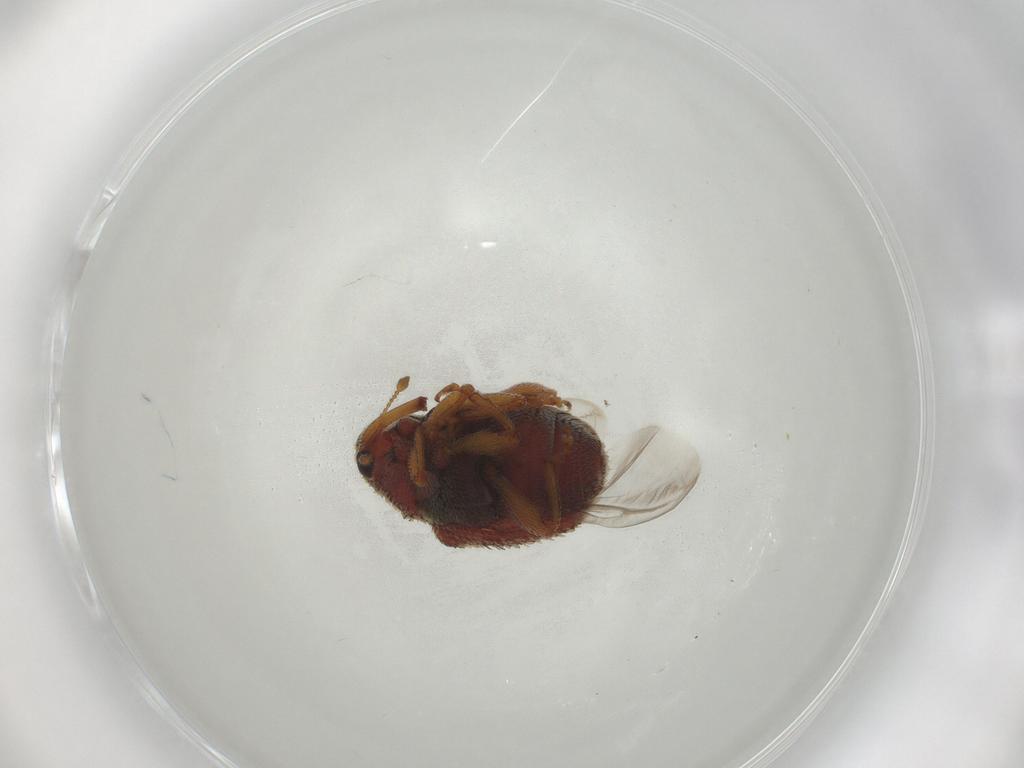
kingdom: Animalia
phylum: Arthropoda
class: Insecta
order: Coleoptera
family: Curculionidae
